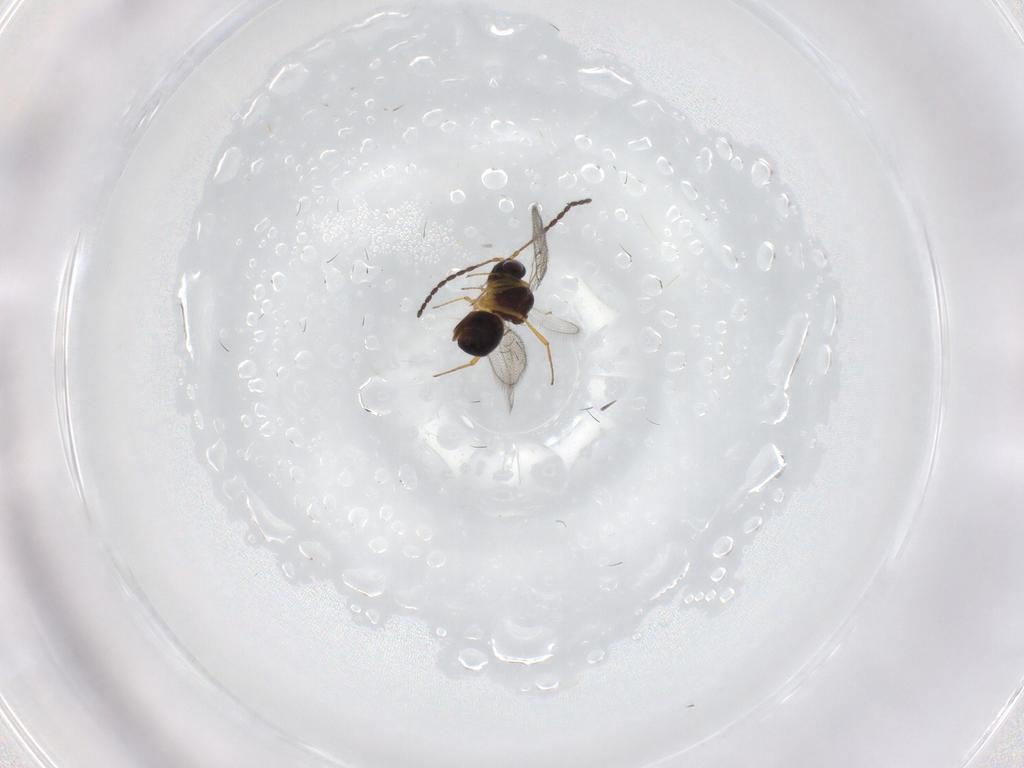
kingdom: Animalia
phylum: Arthropoda
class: Insecta
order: Hymenoptera
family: Figitidae
